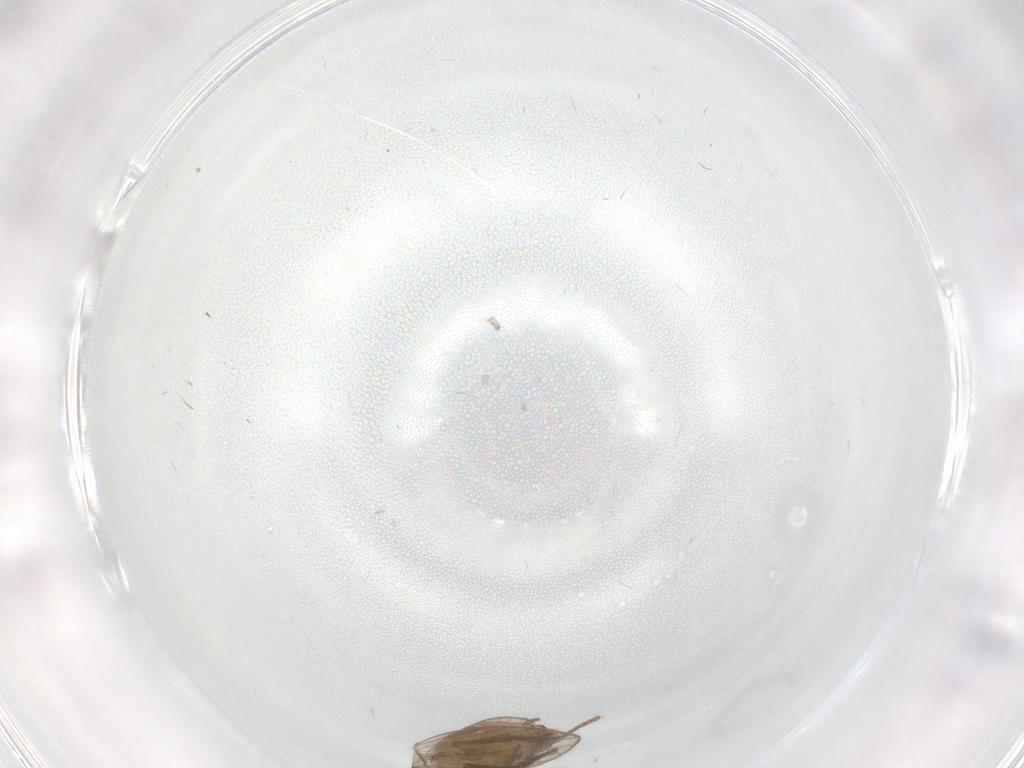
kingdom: Animalia
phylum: Arthropoda
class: Insecta
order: Diptera
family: Psychodidae
